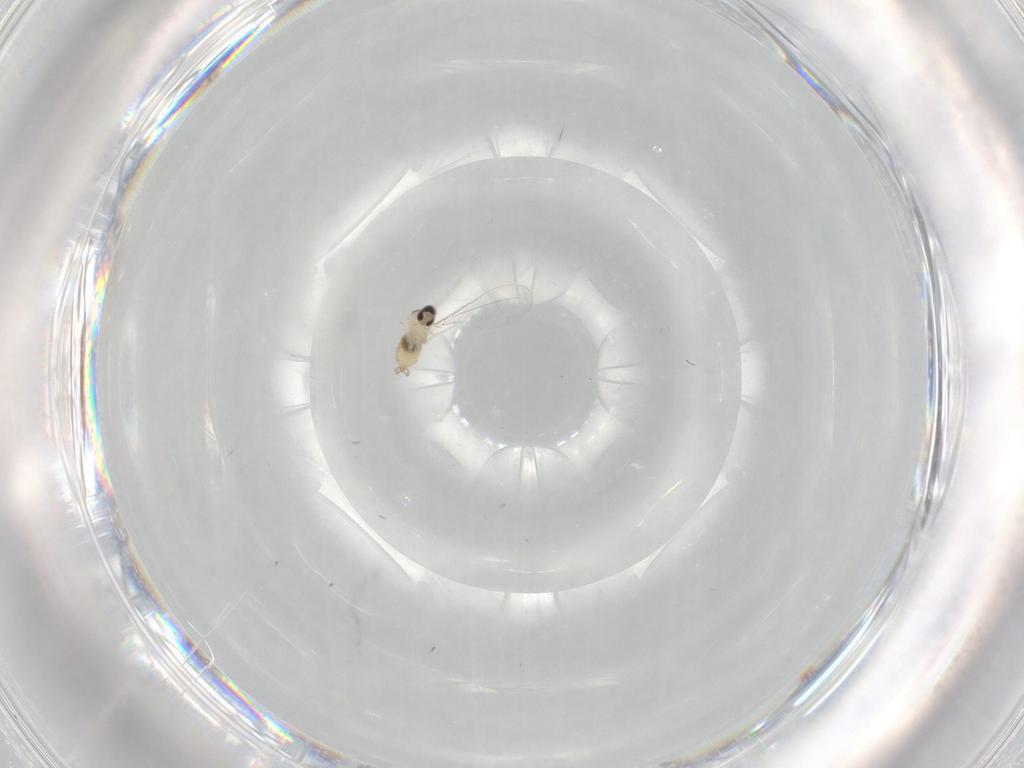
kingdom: Animalia
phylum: Arthropoda
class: Insecta
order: Diptera
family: Cecidomyiidae
